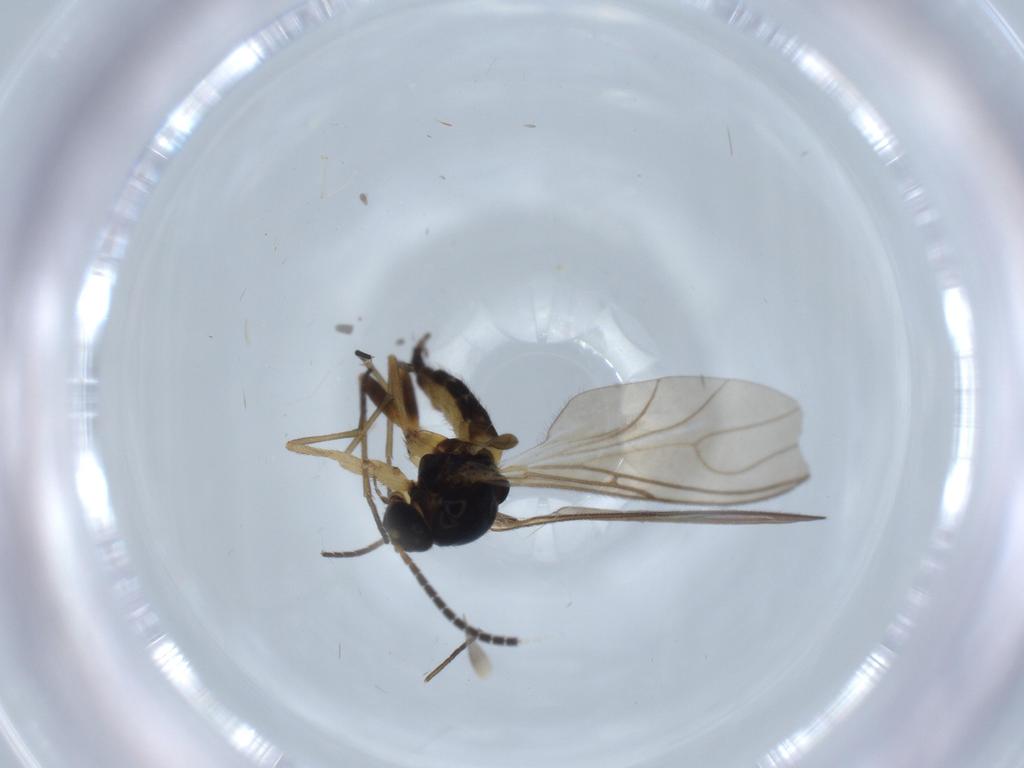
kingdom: Animalia
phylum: Arthropoda
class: Insecta
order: Diptera
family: Sciaridae
